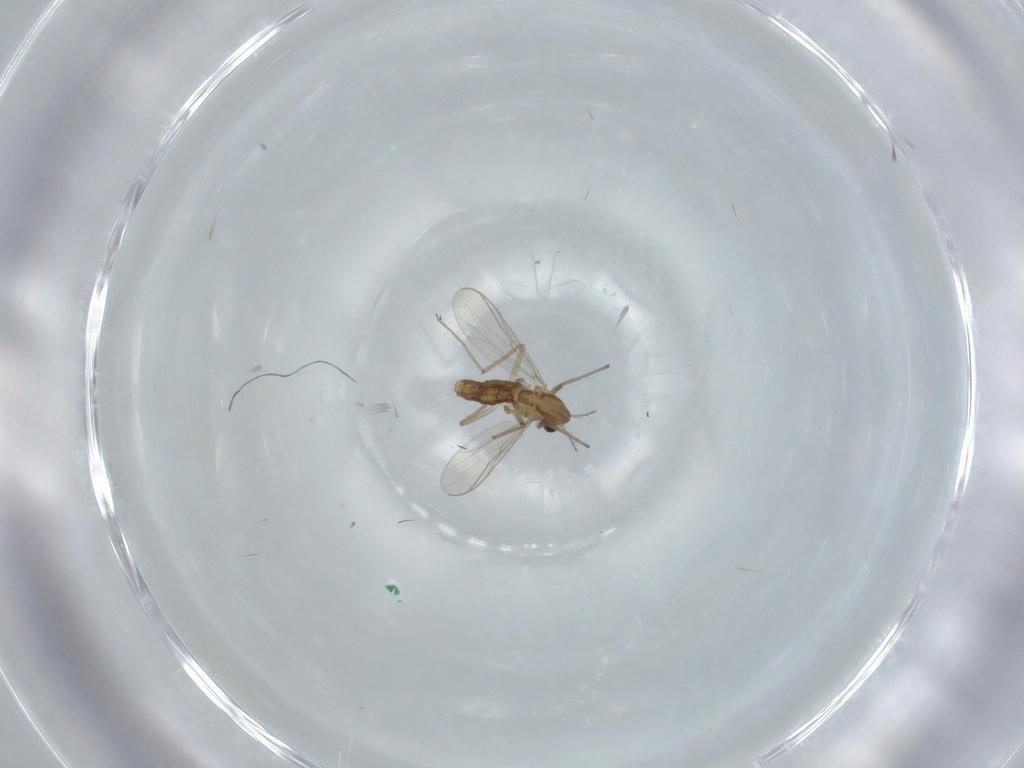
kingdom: Animalia
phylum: Arthropoda
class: Insecta
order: Diptera
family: Chironomidae
